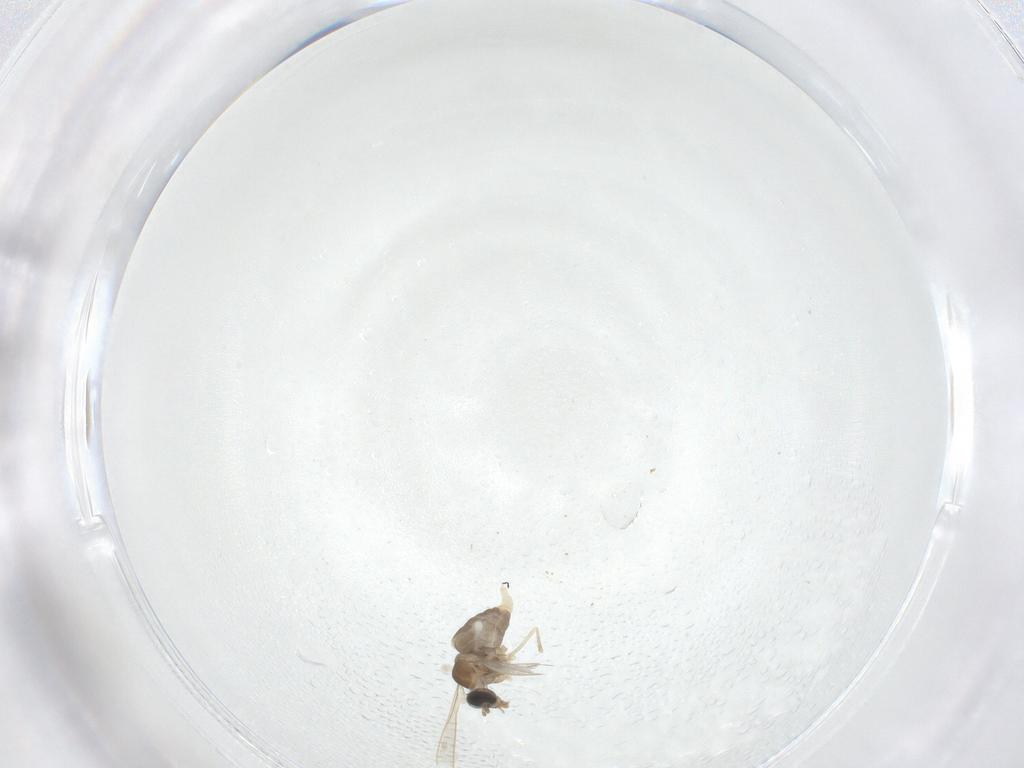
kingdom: Animalia
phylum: Arthropoda
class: Insecta
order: Diptera
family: Cecidomyiidae
